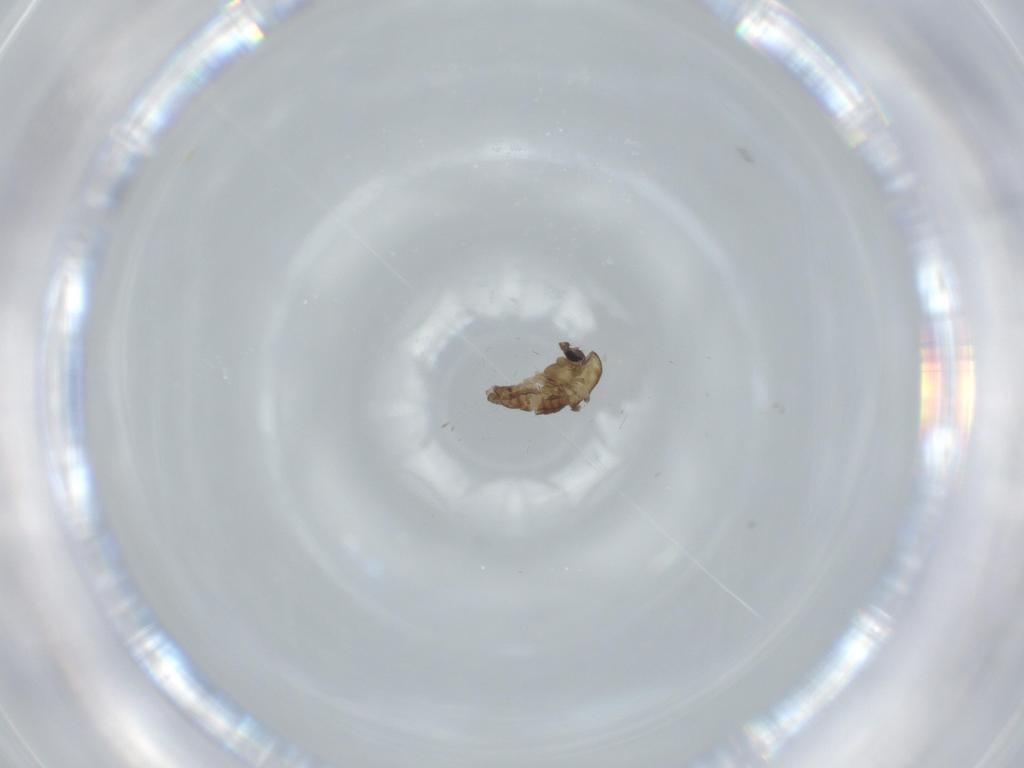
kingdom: Animalia
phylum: Arthropoda
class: Insecta
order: Diptera
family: Chironomidae
